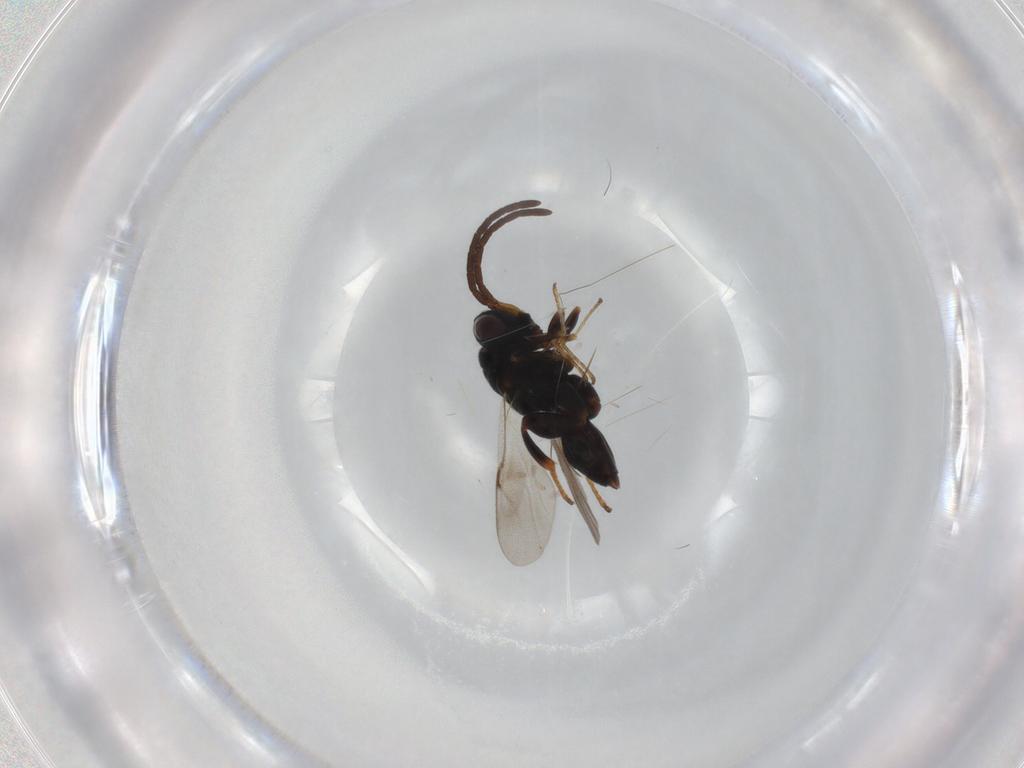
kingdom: Animalia
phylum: Arthropoda
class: Insecta
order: Hymenoptera
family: Chalcididae
